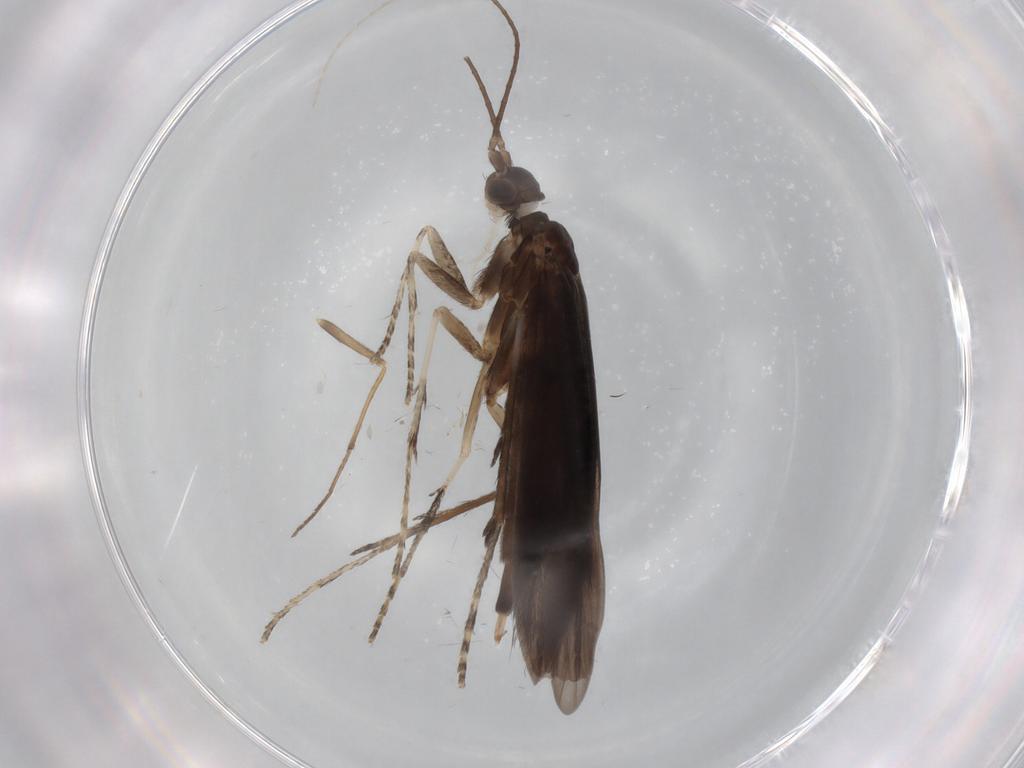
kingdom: Animalia
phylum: Arthropoda
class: Insecta
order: Trichoptera
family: Xiphocentronidae
